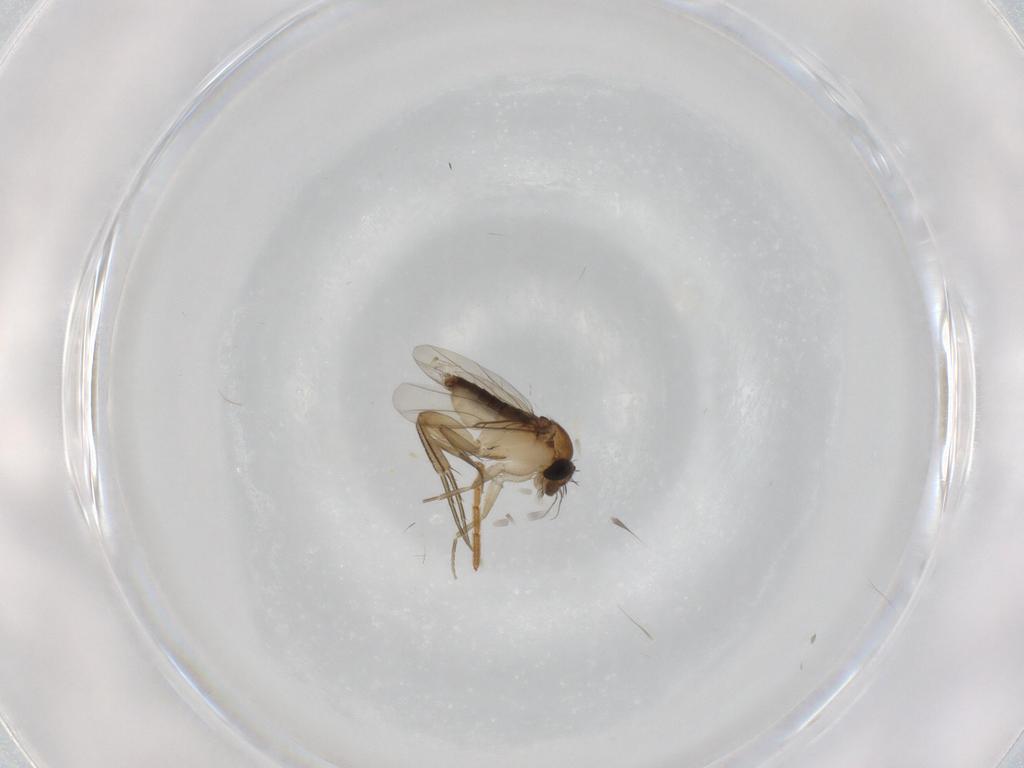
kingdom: Animalia
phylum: Arthropoda
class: Insecta
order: Diptera
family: Phoridae
